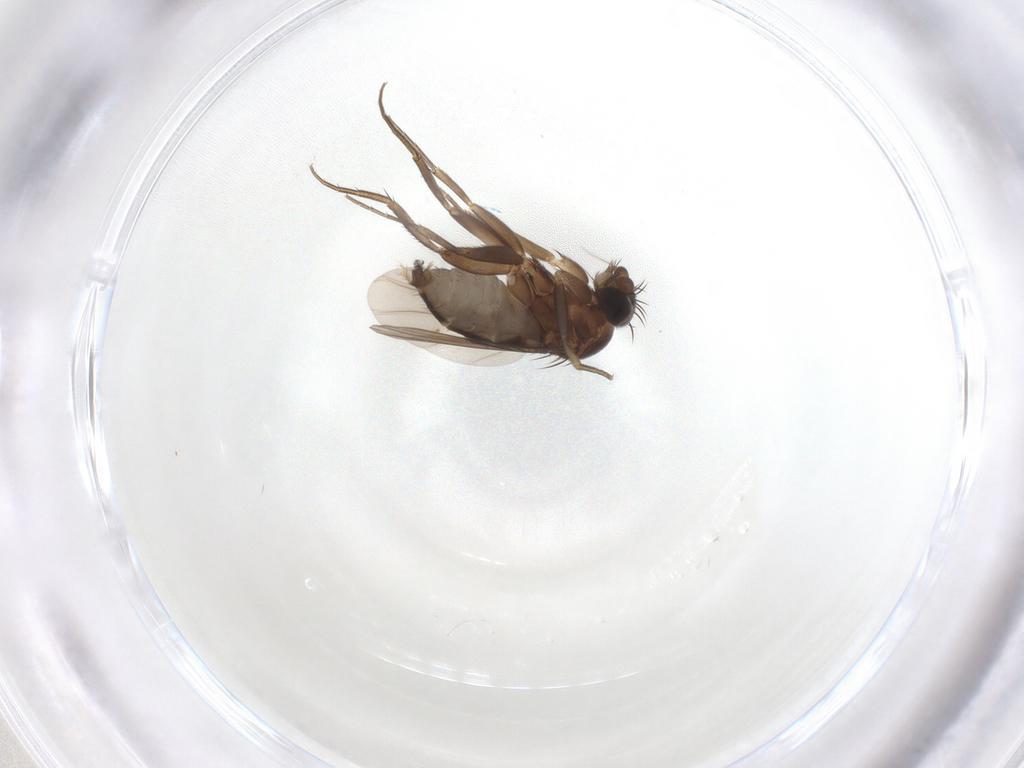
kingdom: Animalia
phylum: Arthropoda
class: Insecta
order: Diptera
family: Phoridae
